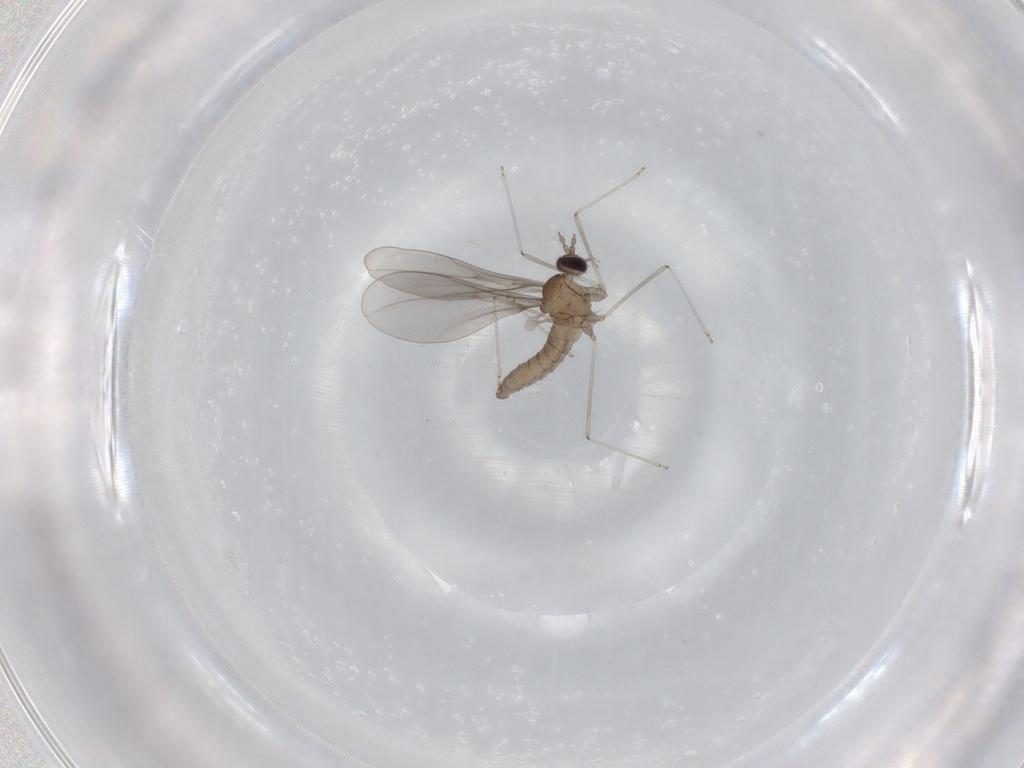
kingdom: Animalia
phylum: Arthropoda
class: Insecta
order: Diptera
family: Cecidomyiidae
